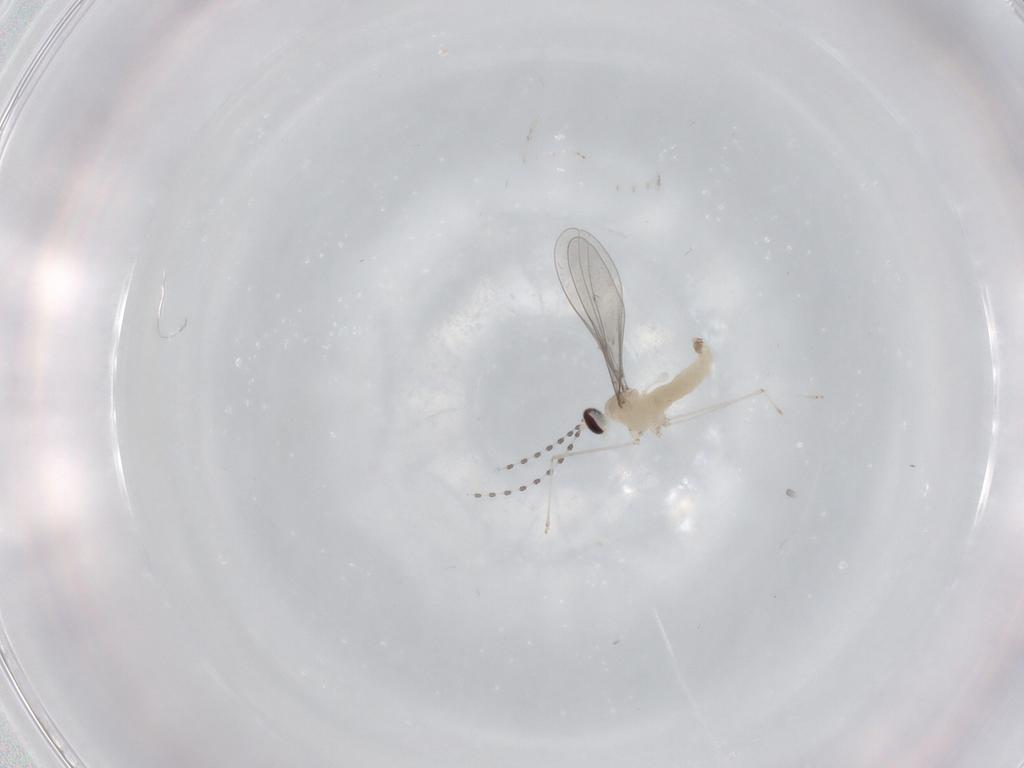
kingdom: Animalia
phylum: Arthropoda
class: Insecta
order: Diptera
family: Cecidomyiidae
